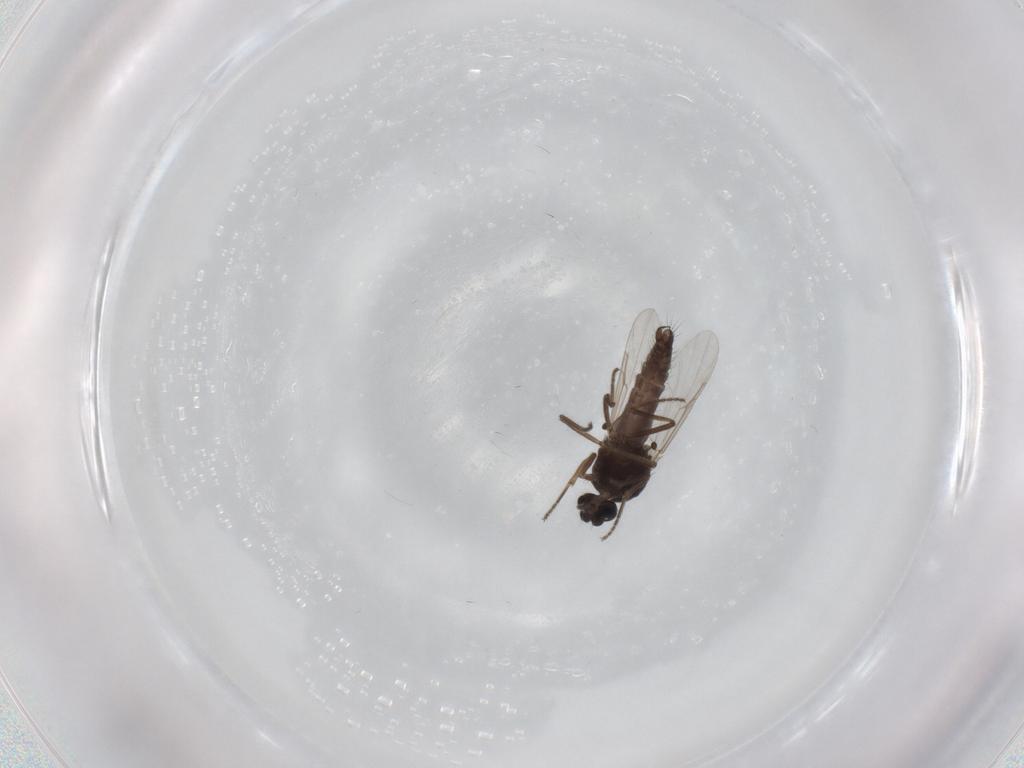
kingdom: Animalia
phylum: Arthropoda
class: Insecta
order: Diptera
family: Ceratopogonidae
